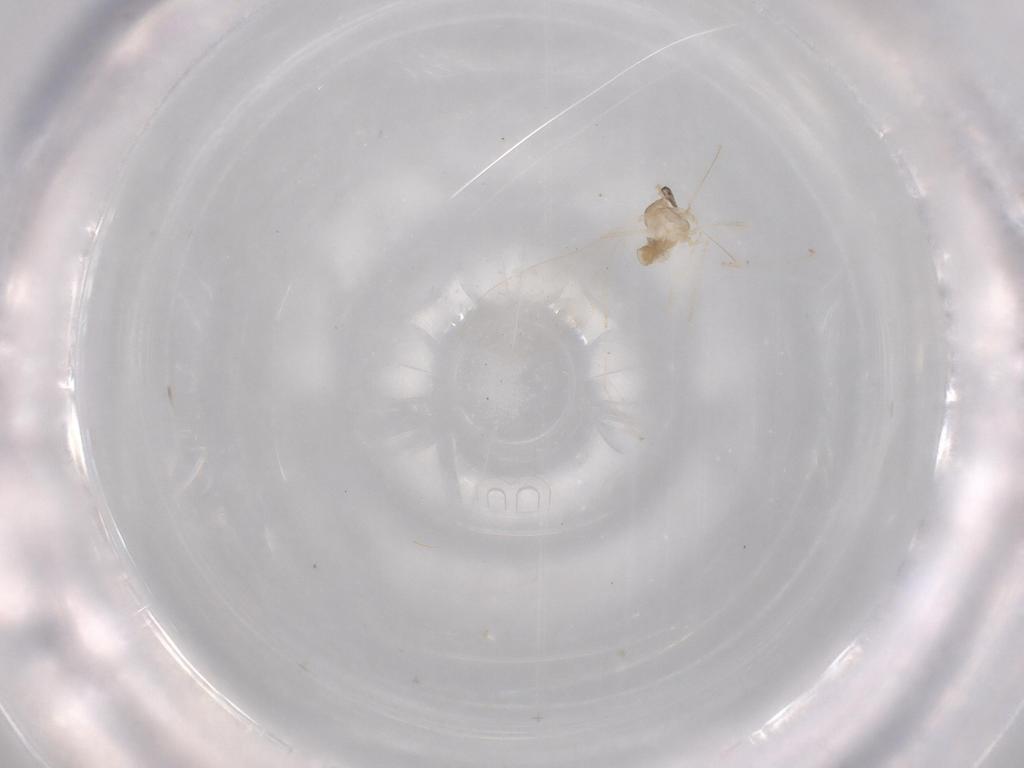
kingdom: Animalia
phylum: Arthropoda
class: Insecta
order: Diptera
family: Cecidomyiidae
